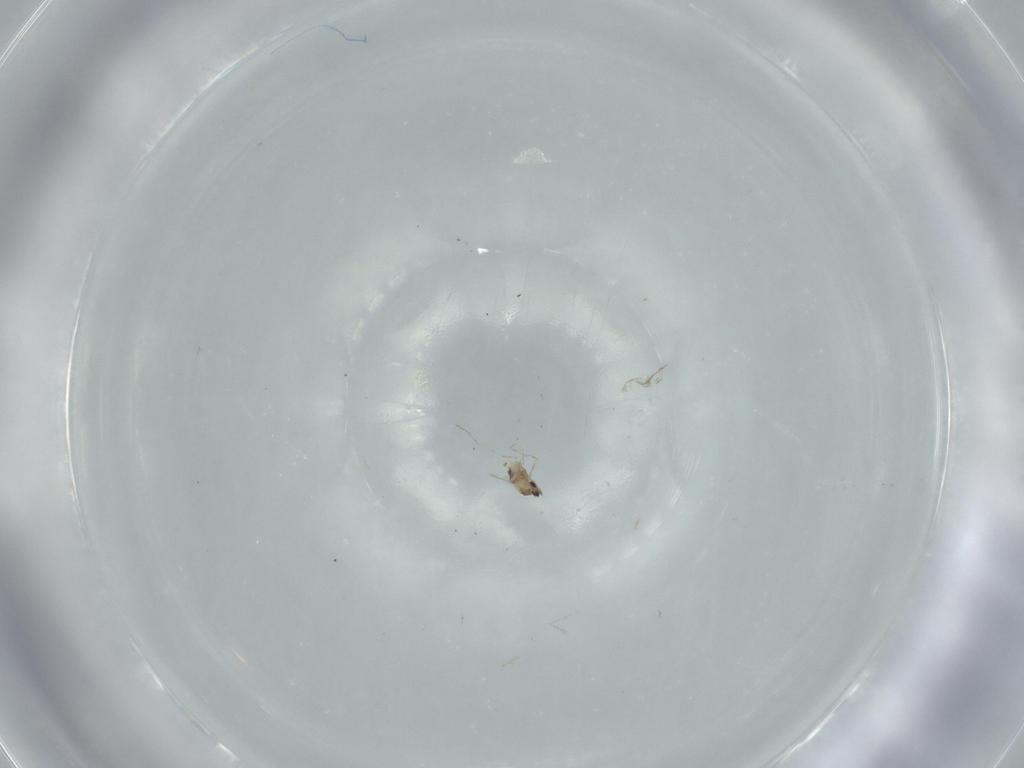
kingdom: Animalia
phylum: Arthropoda
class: Insecta
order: Diptera
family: Cecidomyiidae
